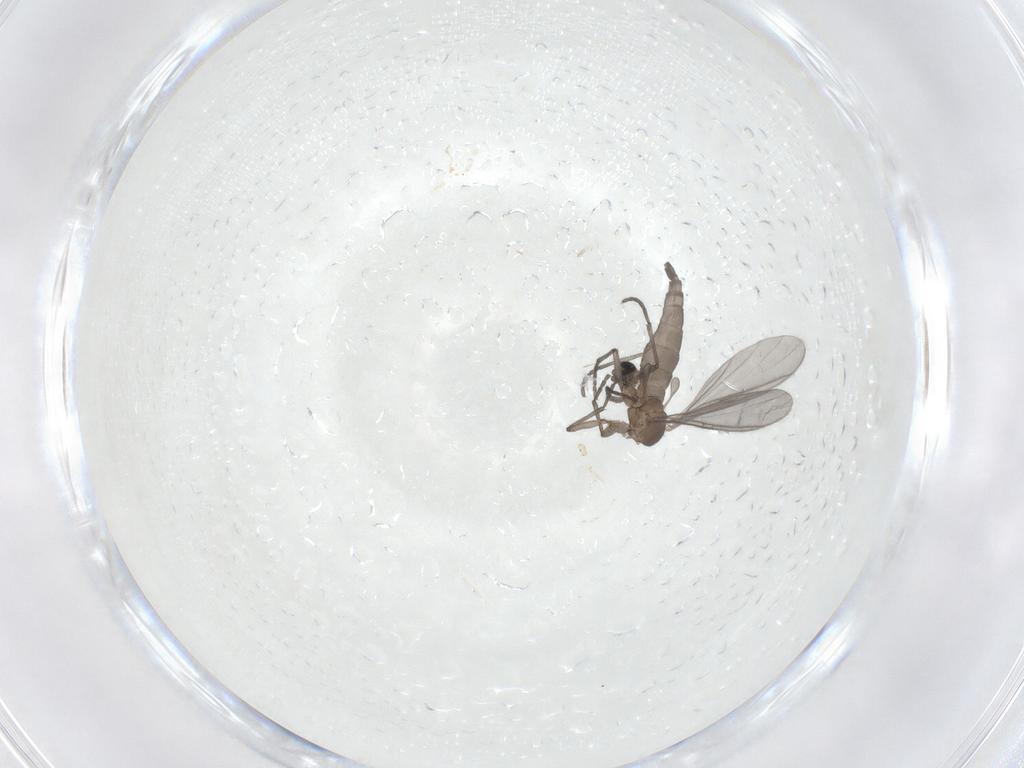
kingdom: Animalia
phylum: Arthropoda
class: Insecta
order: Diptera
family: Sciaridae
